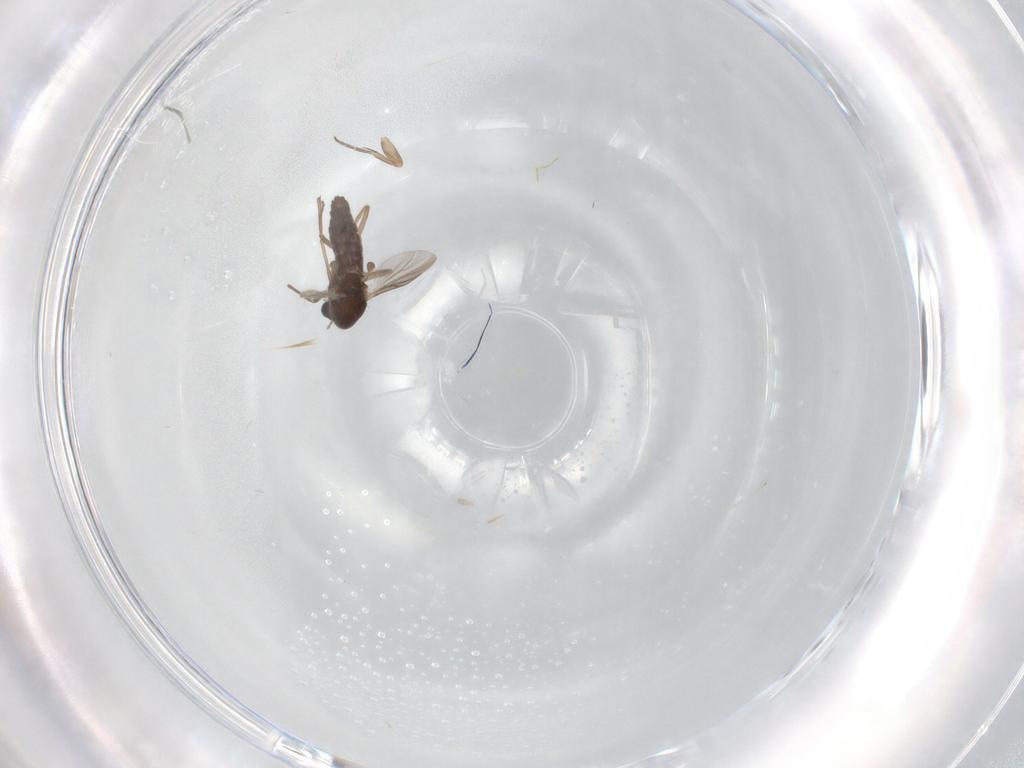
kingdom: Animalia
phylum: Arthropoda
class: Insecta
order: Diptera
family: Chironomidae
